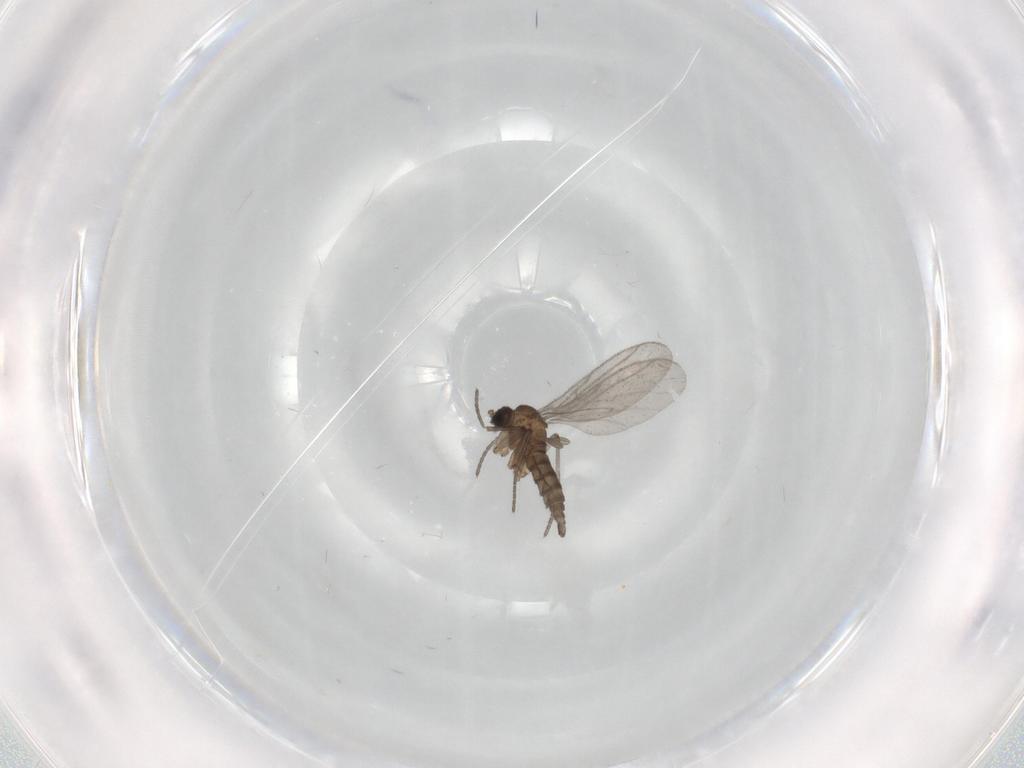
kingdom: Animalia
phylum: Arthropoda
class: Insecta
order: Diptera
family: Sciaridae
